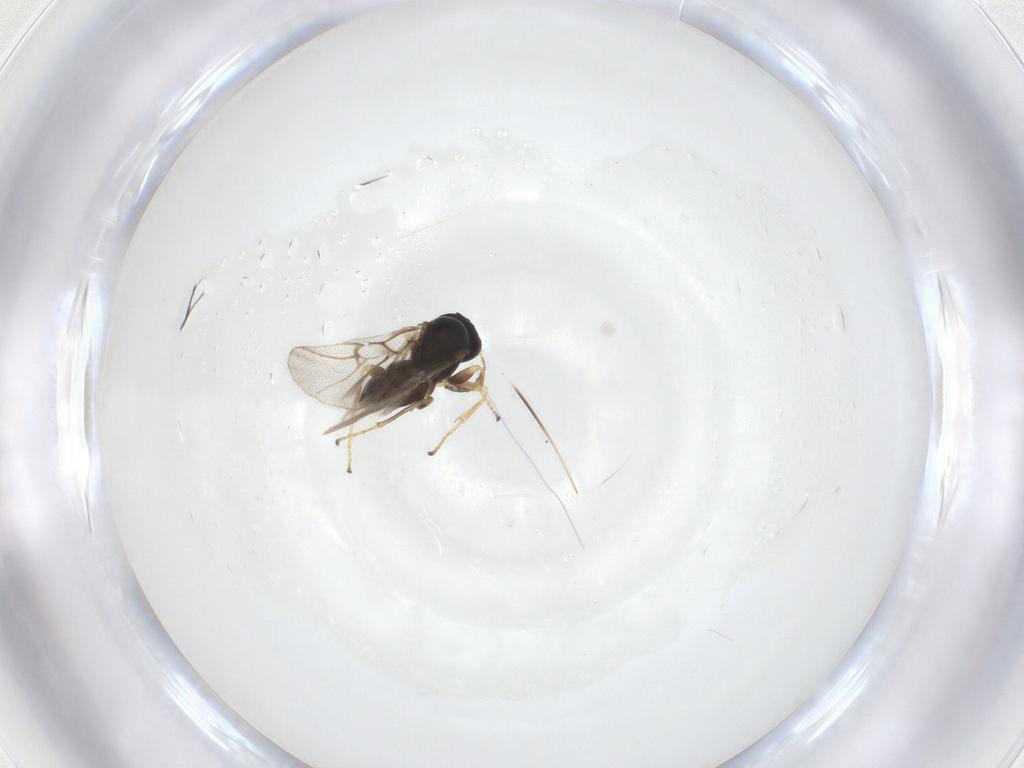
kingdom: Animalia
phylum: Arthropoda
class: Insecta
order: Hymenoptera
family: Cynipidae
